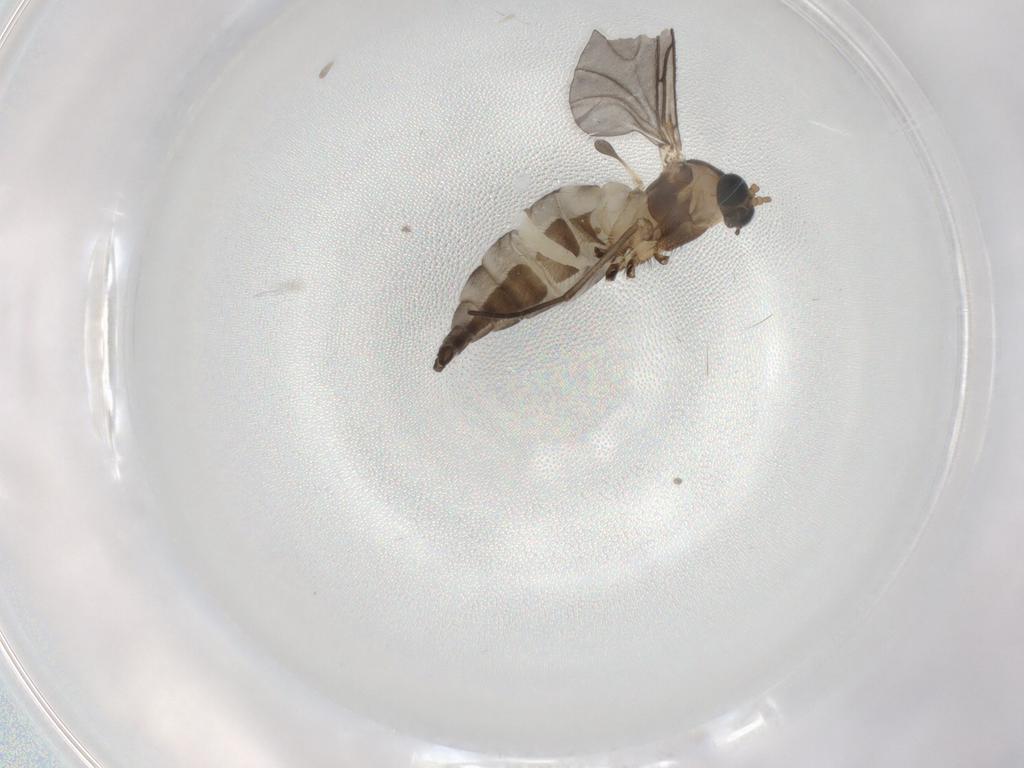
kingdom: Animalia
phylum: Arthropoda
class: Insecta
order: Diptera
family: Sciaridae
